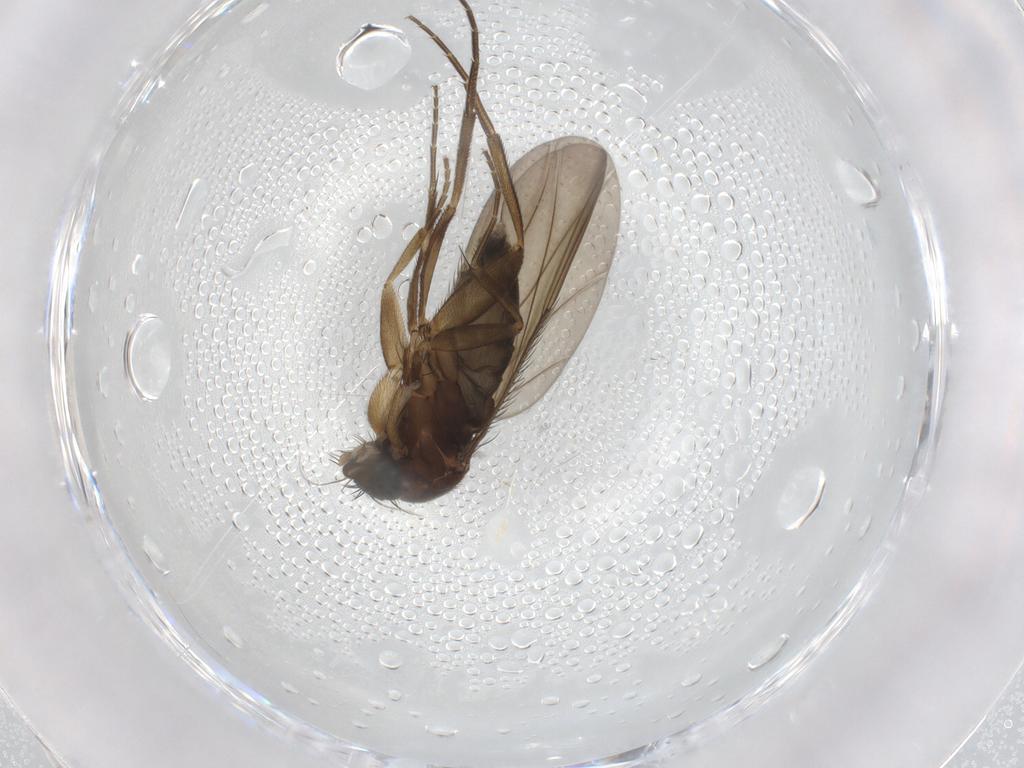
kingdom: Animalia
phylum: Arthropoda
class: Insecta
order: Diptera
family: Phoridae
